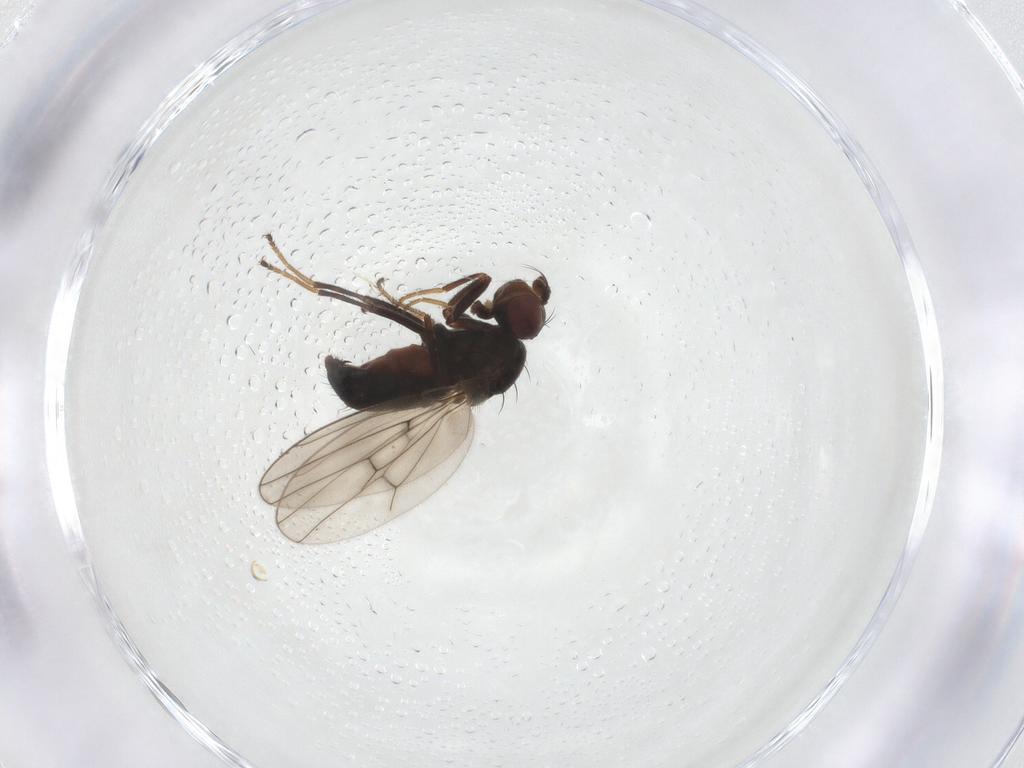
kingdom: Animalia
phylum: Arthropoda
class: Insecta
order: Diptera
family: Ephydridae
